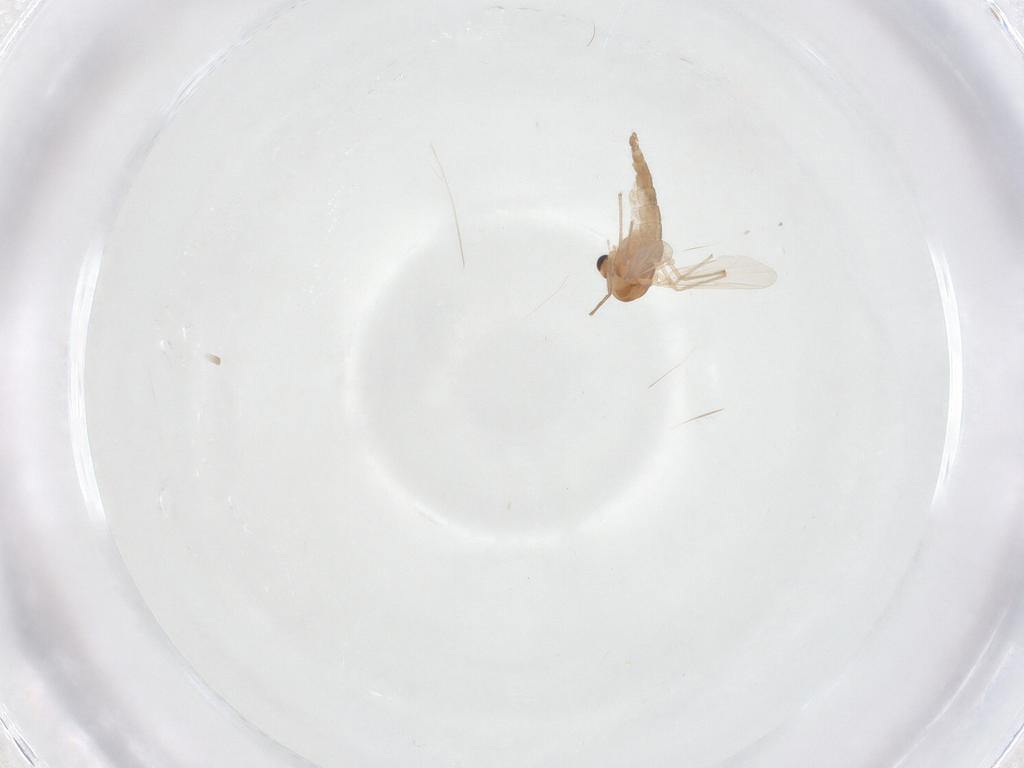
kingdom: Animalia
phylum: Arthropoda
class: Insecta
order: Diptera
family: Chironomidae
